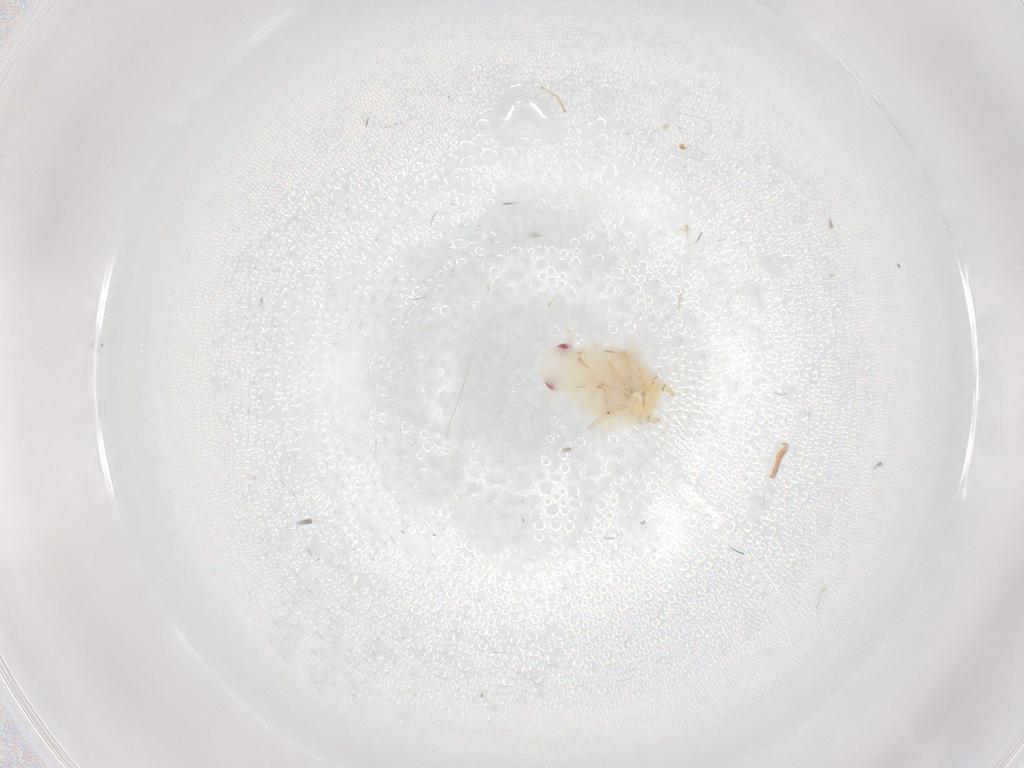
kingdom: Animalia
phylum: Arthropoda
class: Insecta
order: Hemiptera
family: Flatidae
